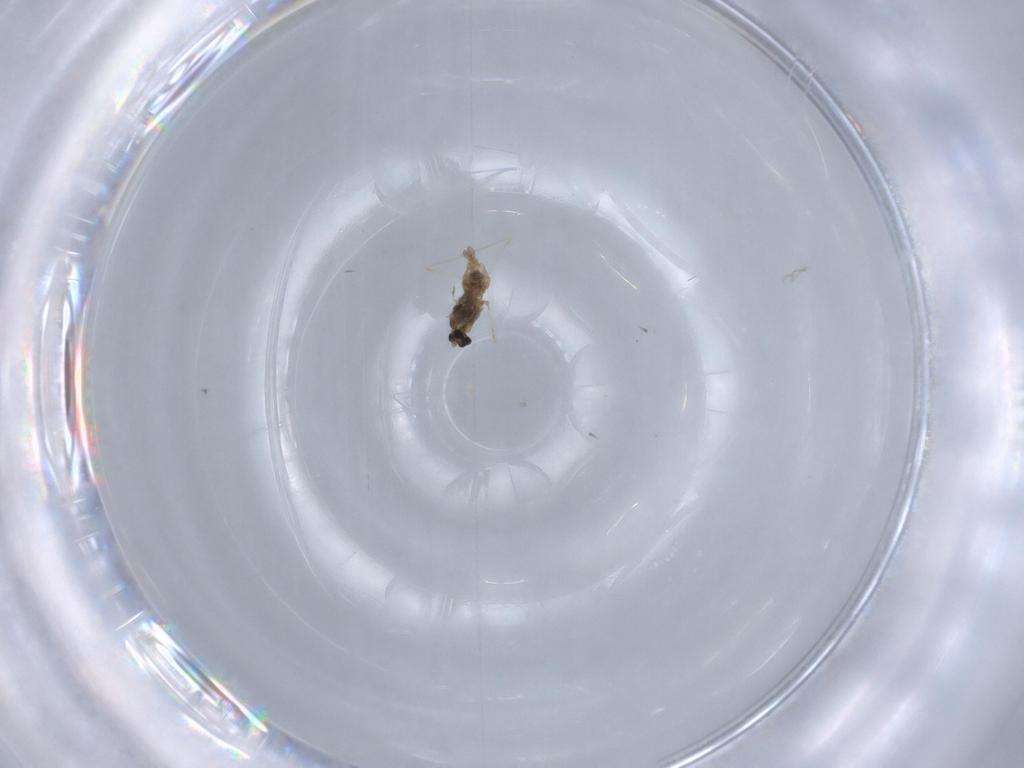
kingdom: Animalia
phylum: Arthropoda
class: Insecta
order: Diptera
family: Cecidomyiidae
